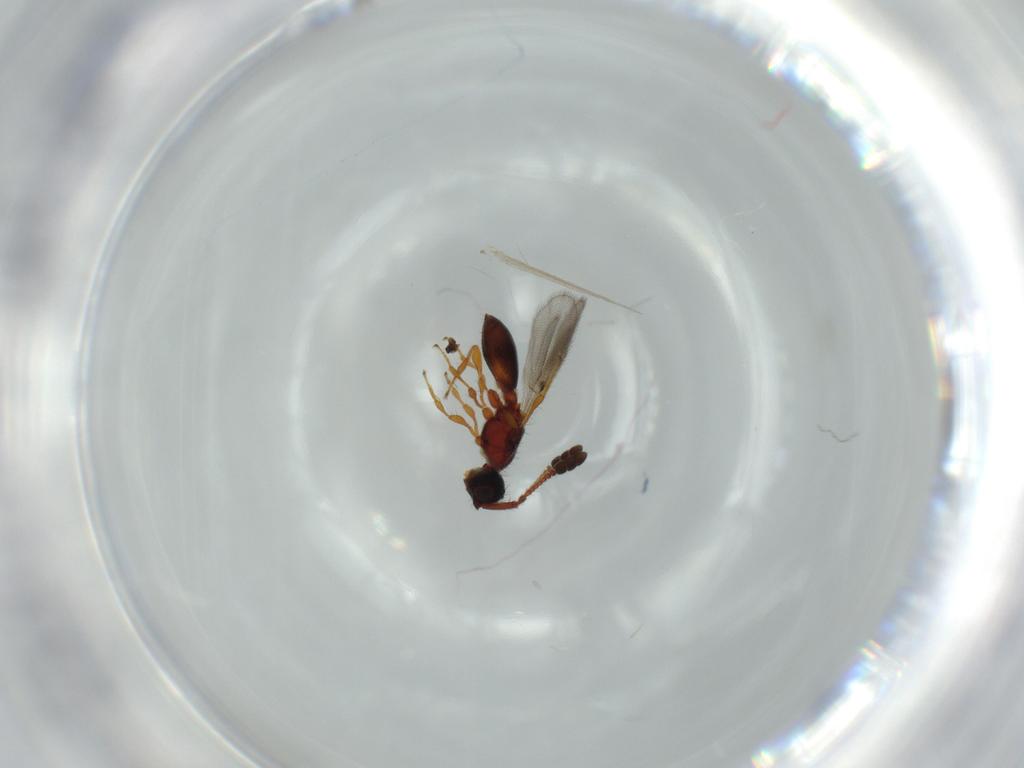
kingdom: Animalia
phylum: Arthropoda
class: Insecta
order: Hymenoptera
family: Diapriidae
